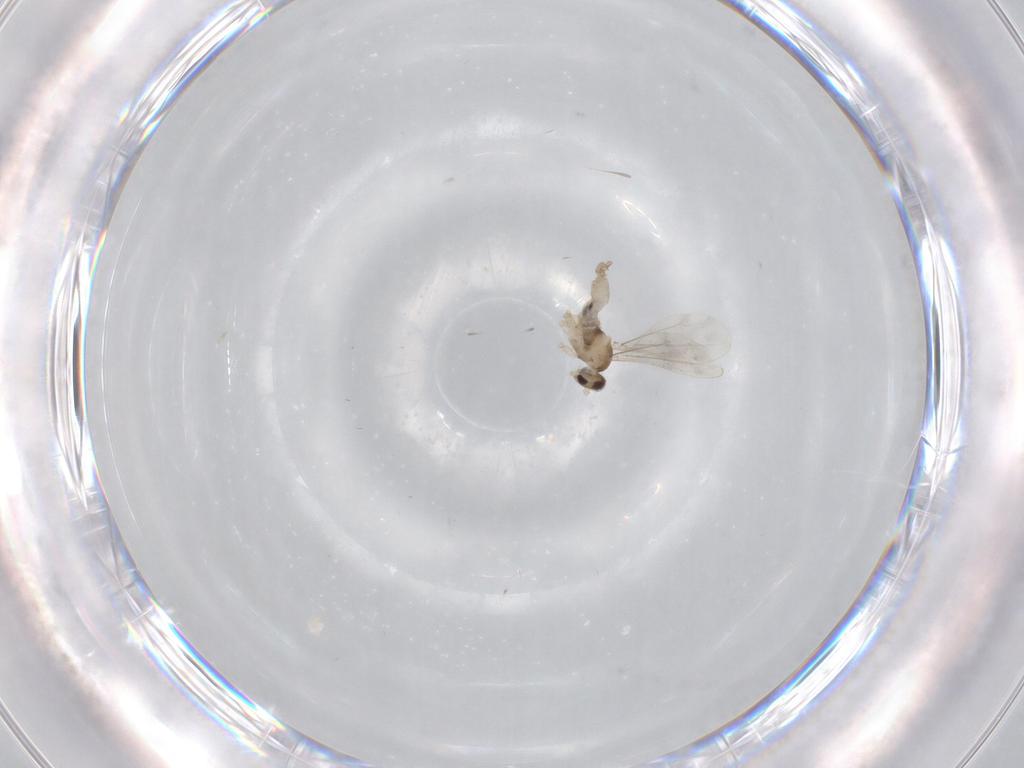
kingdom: Animalia
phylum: Arthropoda
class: Insecta
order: Diptera
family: Cecidomyiidae
